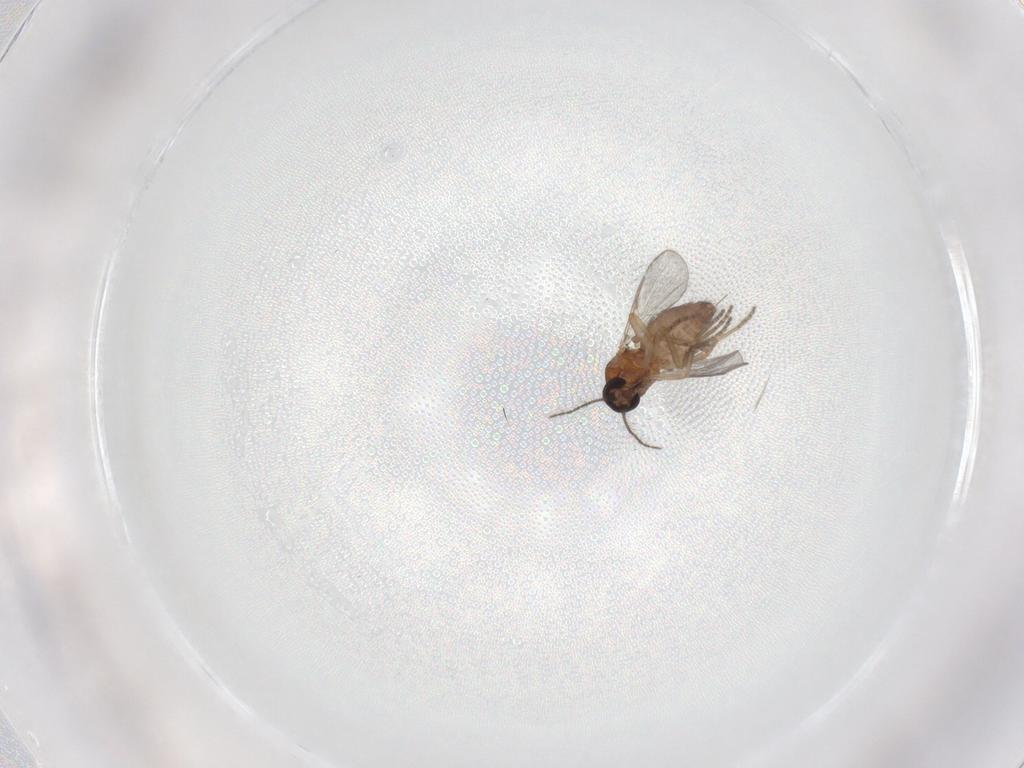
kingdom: Animalia
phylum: Arthropoda
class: Insecta
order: Diptera
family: Ceratopogonidae
